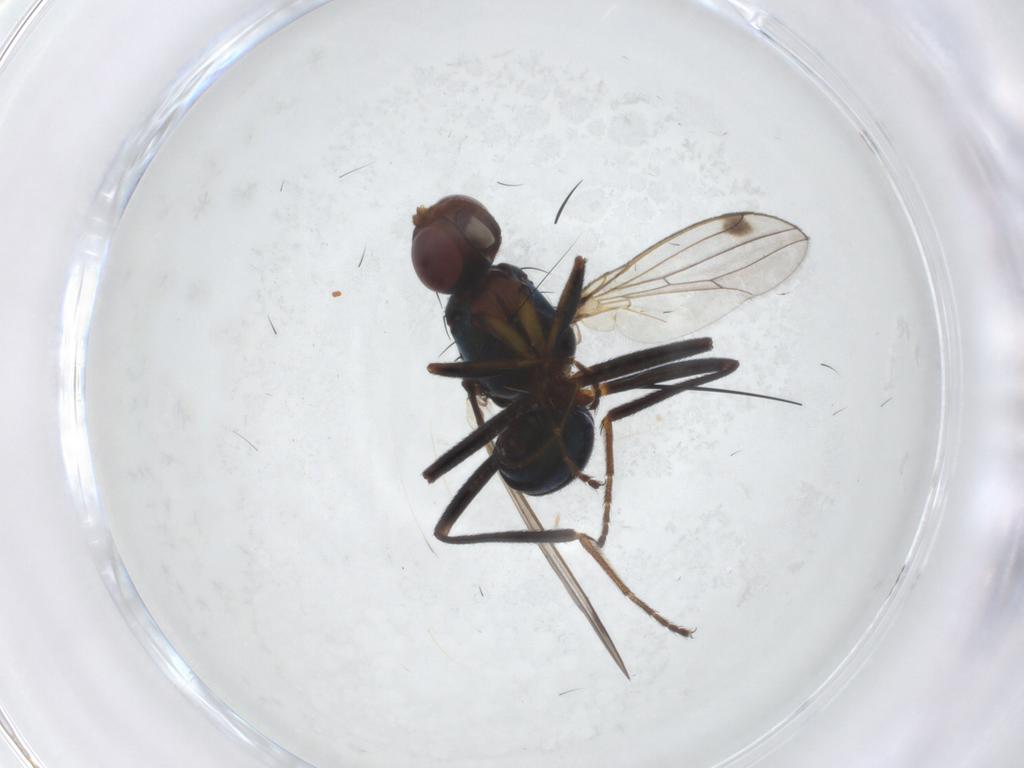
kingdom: Animalia
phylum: Arthropoda
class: Insecta
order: Diptera
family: Sepsidae
